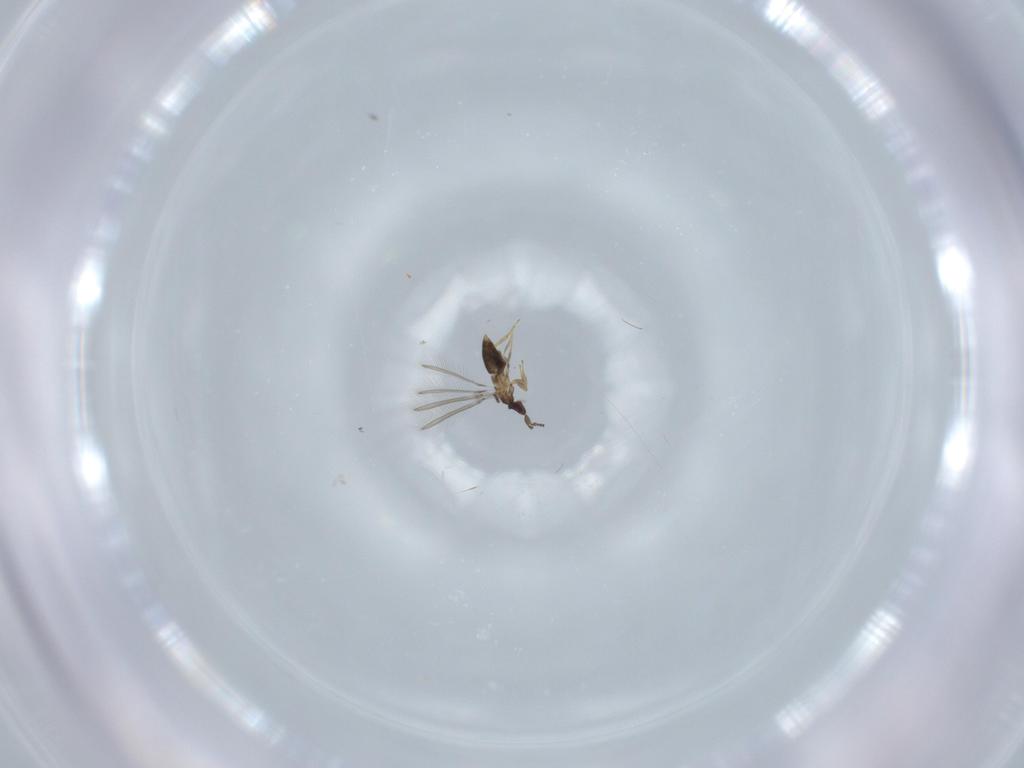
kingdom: Animalia
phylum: Arthropoda
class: Insecta
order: Hymenoptera
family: Mymaridae
